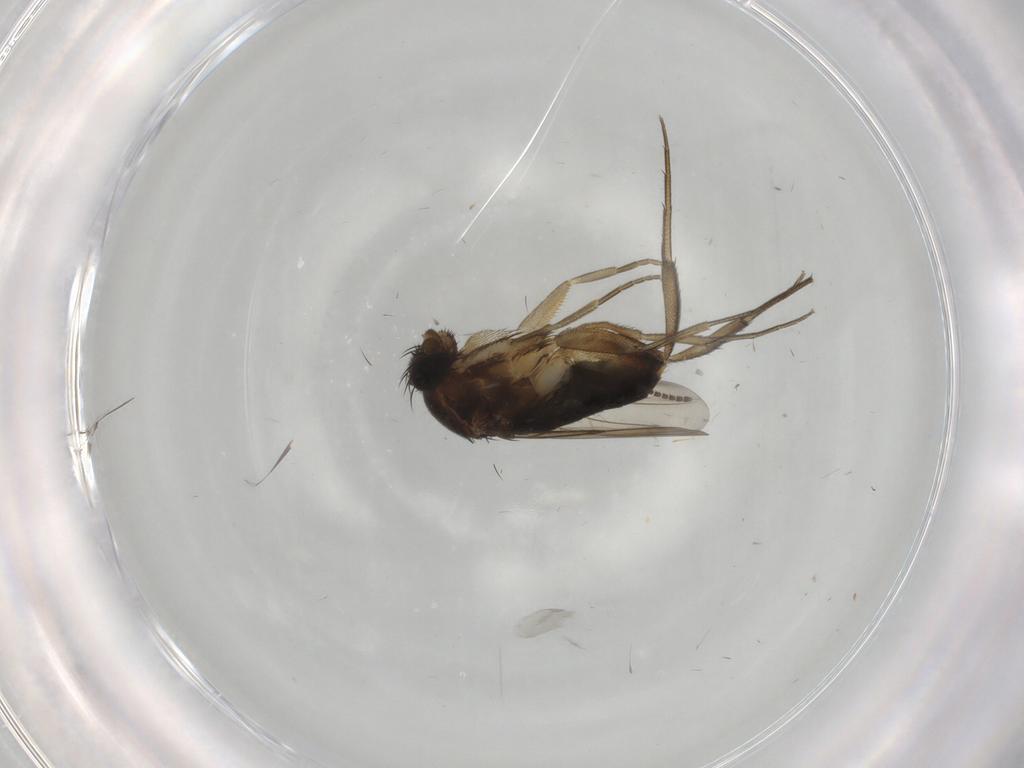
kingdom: Animalia
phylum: Arthropoda
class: Insecta
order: Diptera
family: Phoridae
